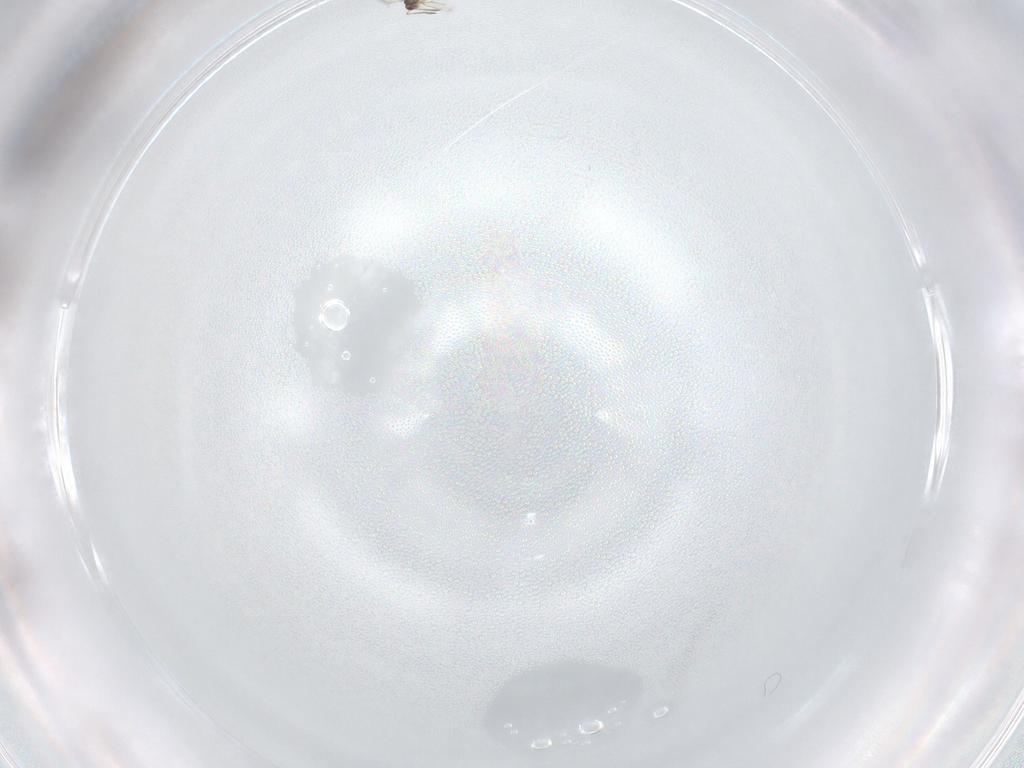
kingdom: Animalia
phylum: Arthropoda
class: Insecta
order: Hymenoptera
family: Mymaridae
